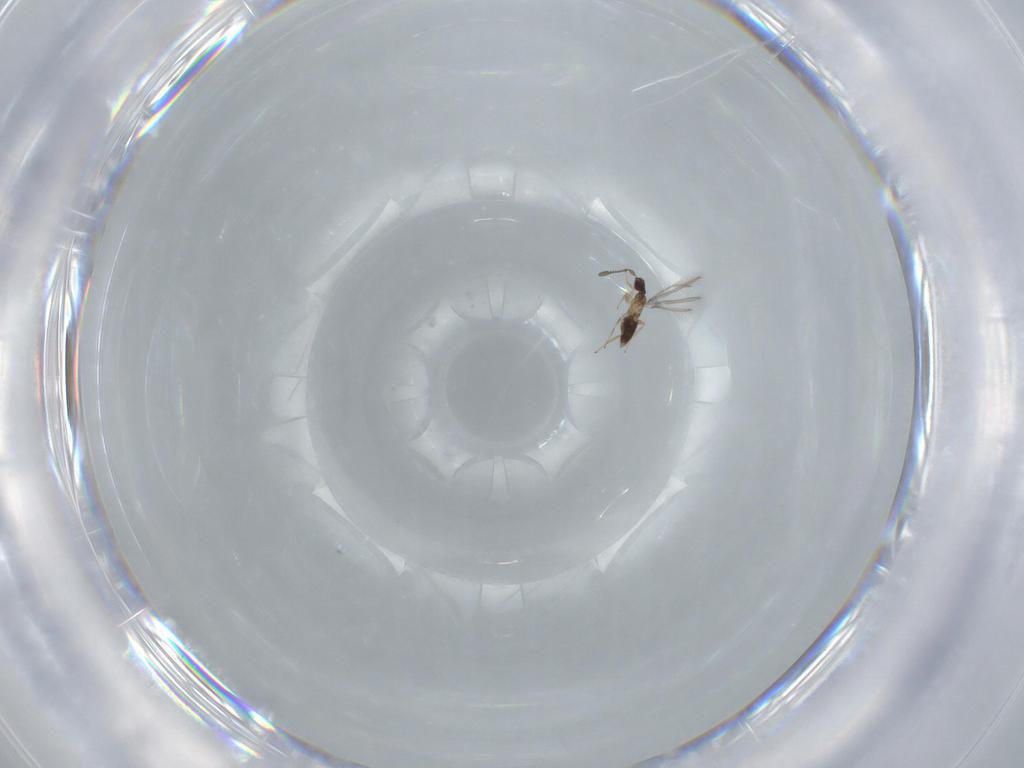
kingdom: Animalia
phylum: Arthropoda
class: Insecta
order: Hymenoptera
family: Mymaridae
